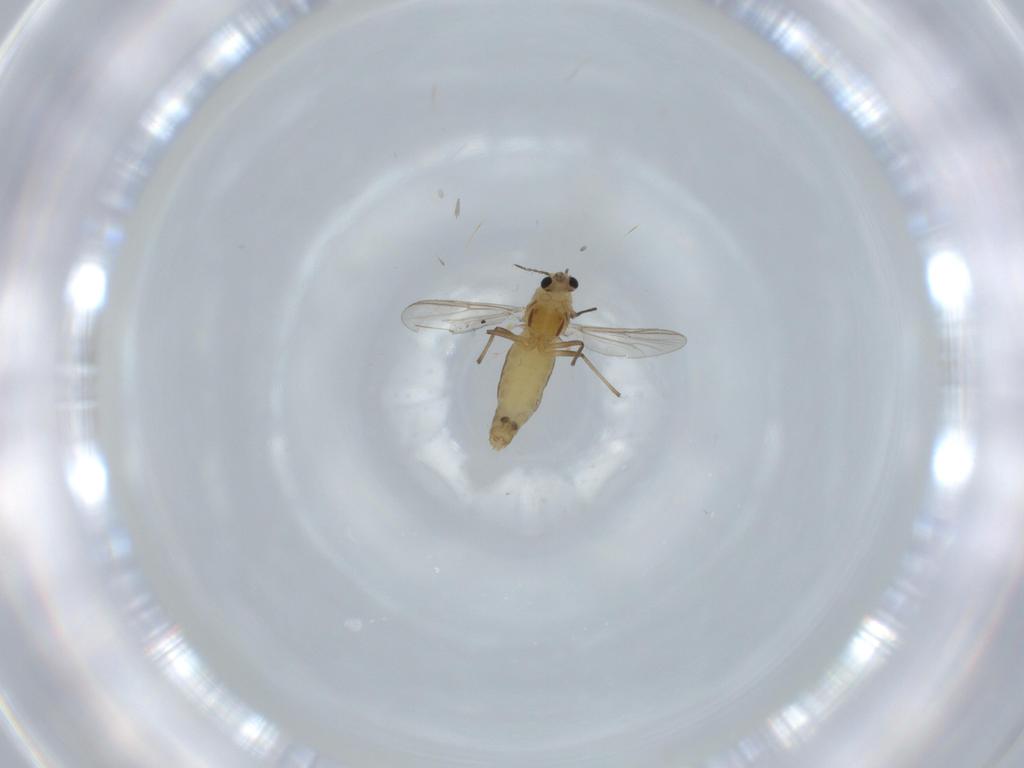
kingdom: Animalia
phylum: Arthropoda
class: Insecta
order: Diptera
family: Chironomidae
